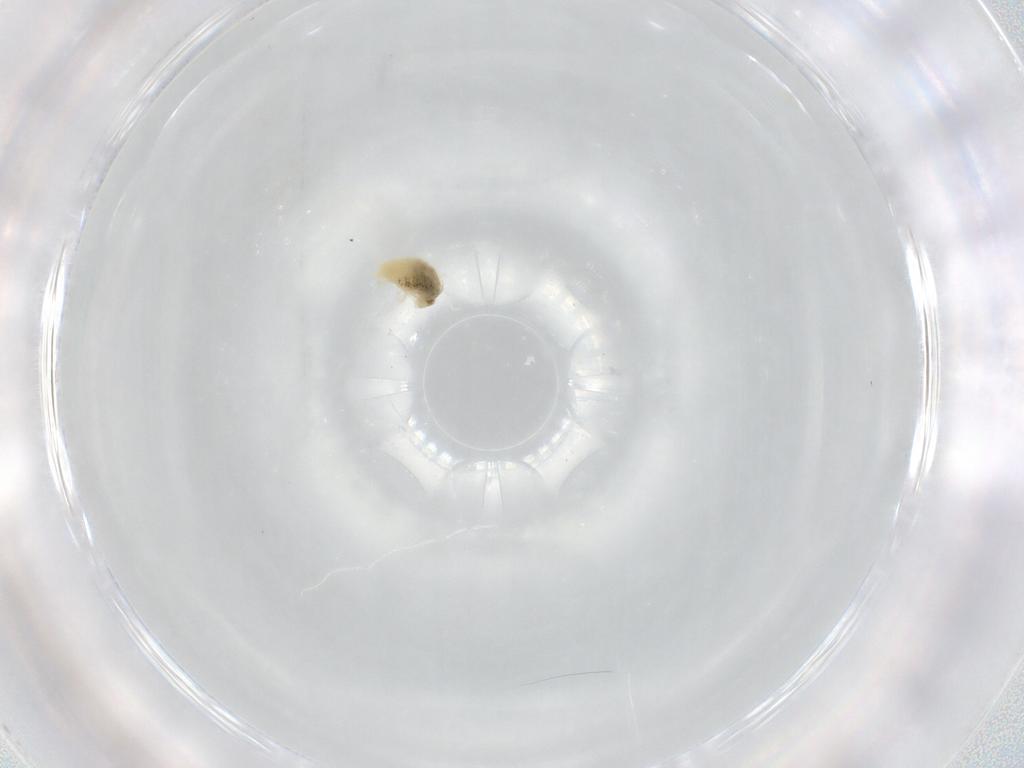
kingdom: Animalia
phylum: Arthropoda
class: Arachnida
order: Trombidiformes
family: Tetranychidae
